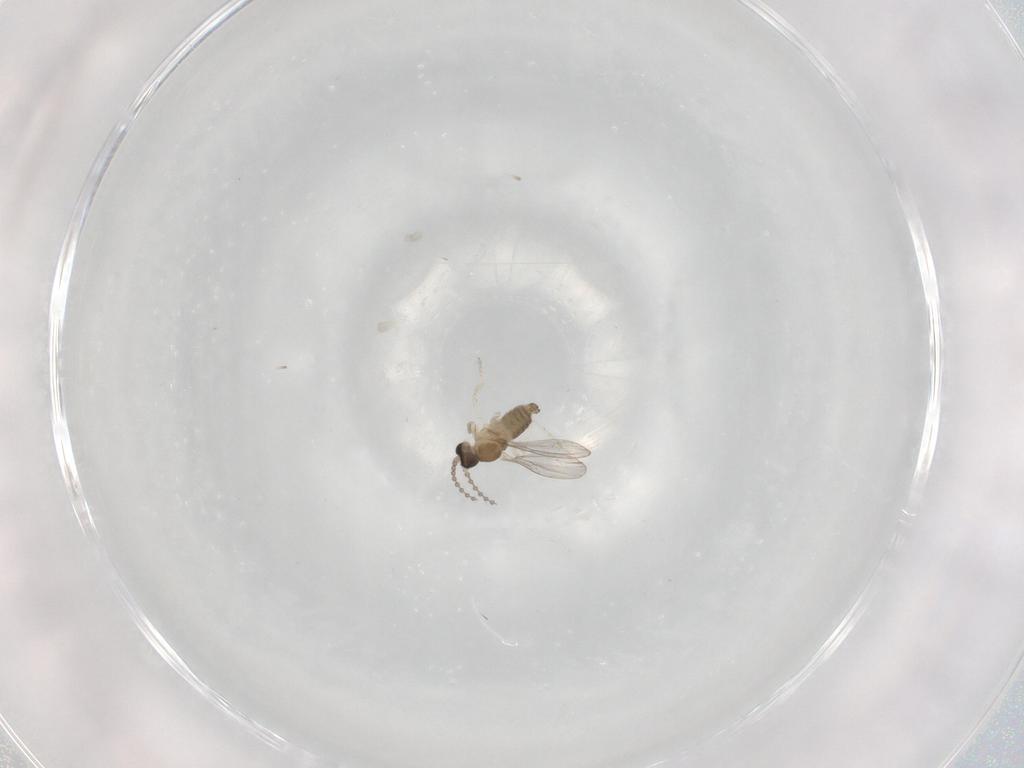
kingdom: Animalia
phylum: Arthropoda
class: Insecta
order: Diptera
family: Cecidomyiidae
